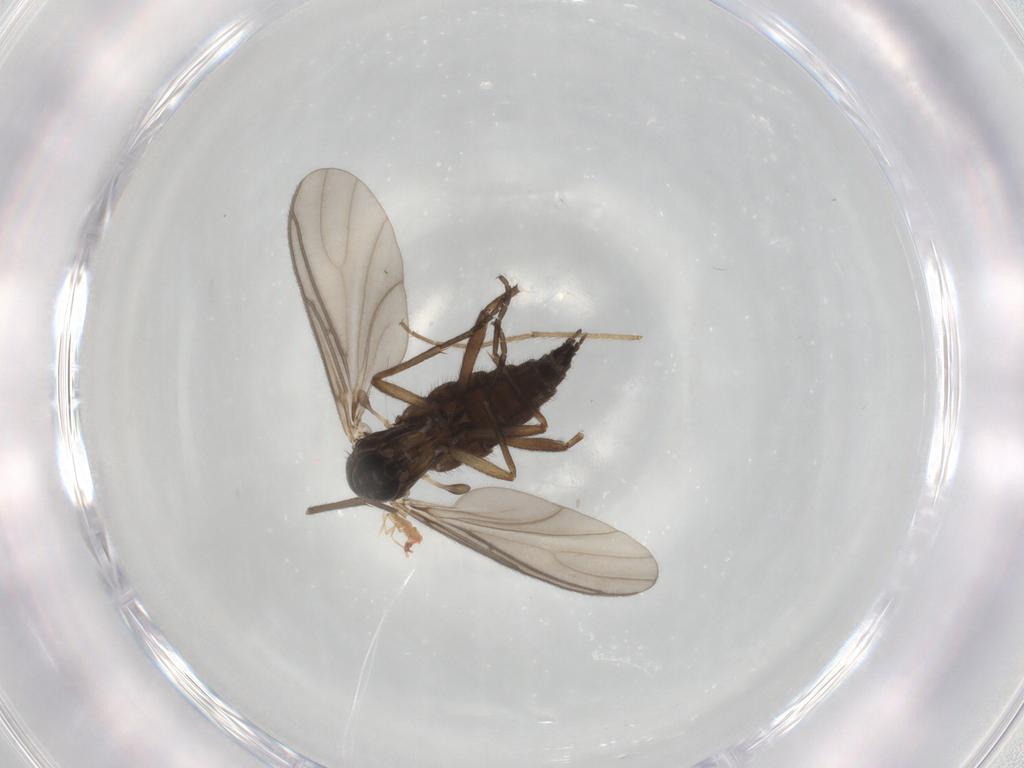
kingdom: Animalia
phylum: Arthropoda
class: Insecta
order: Diptera
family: Sciaridae
